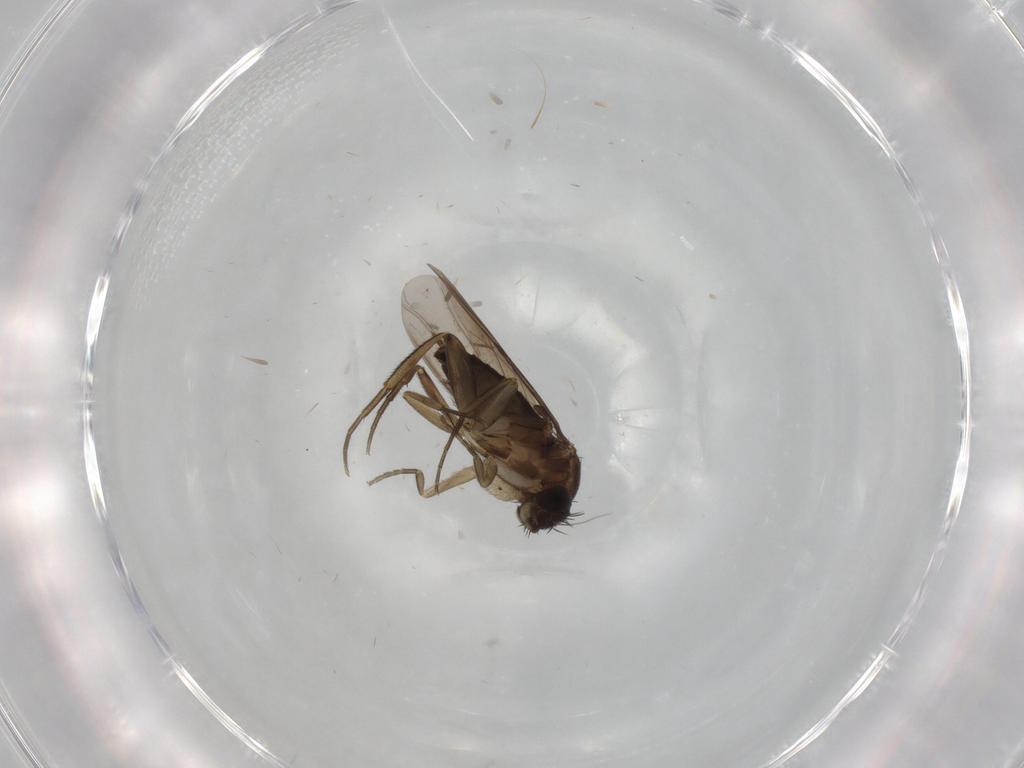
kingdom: Animalia
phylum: Arthropoda
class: Insecta
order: Diptera
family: Phoridae
